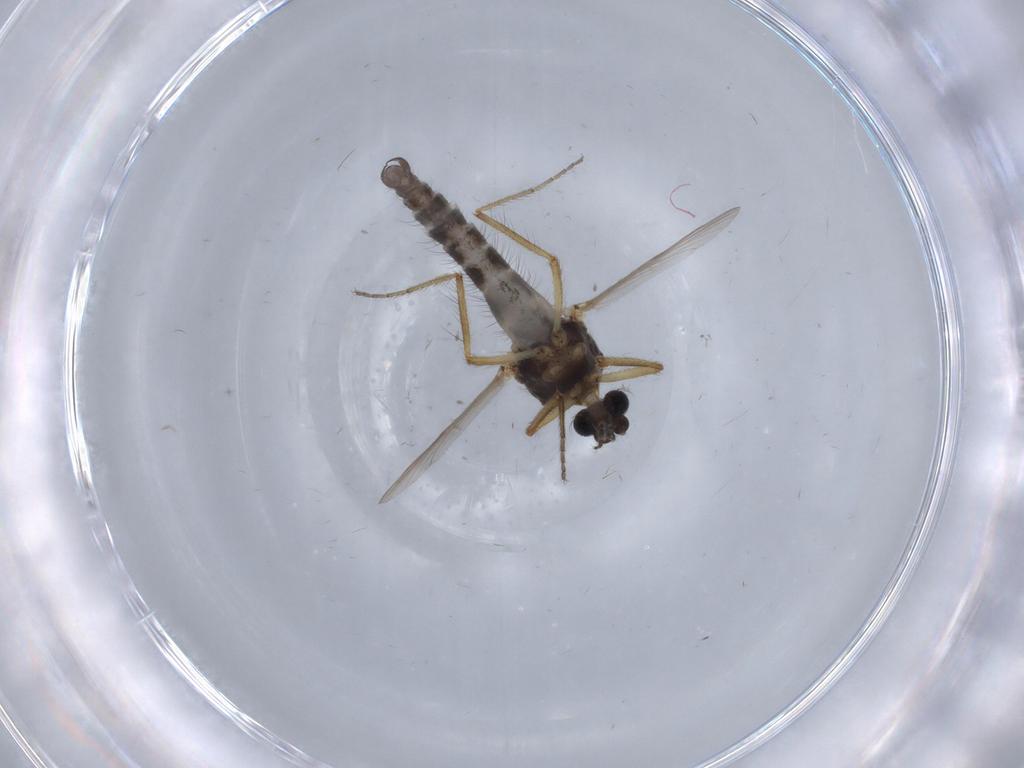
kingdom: Animalia
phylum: Arthropoda
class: Insecta
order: Diptera
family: Ceratopogonidae
